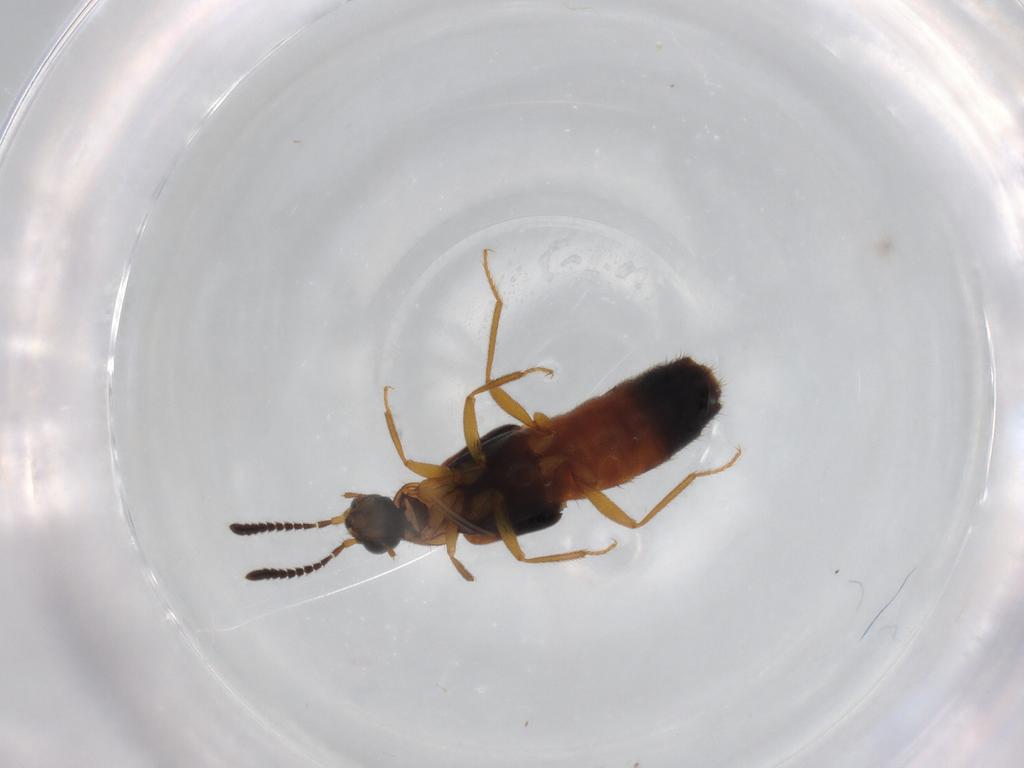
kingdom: Animalia
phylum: Arthropoda
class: Insecta
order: Coleoptera
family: Staphylinidae
